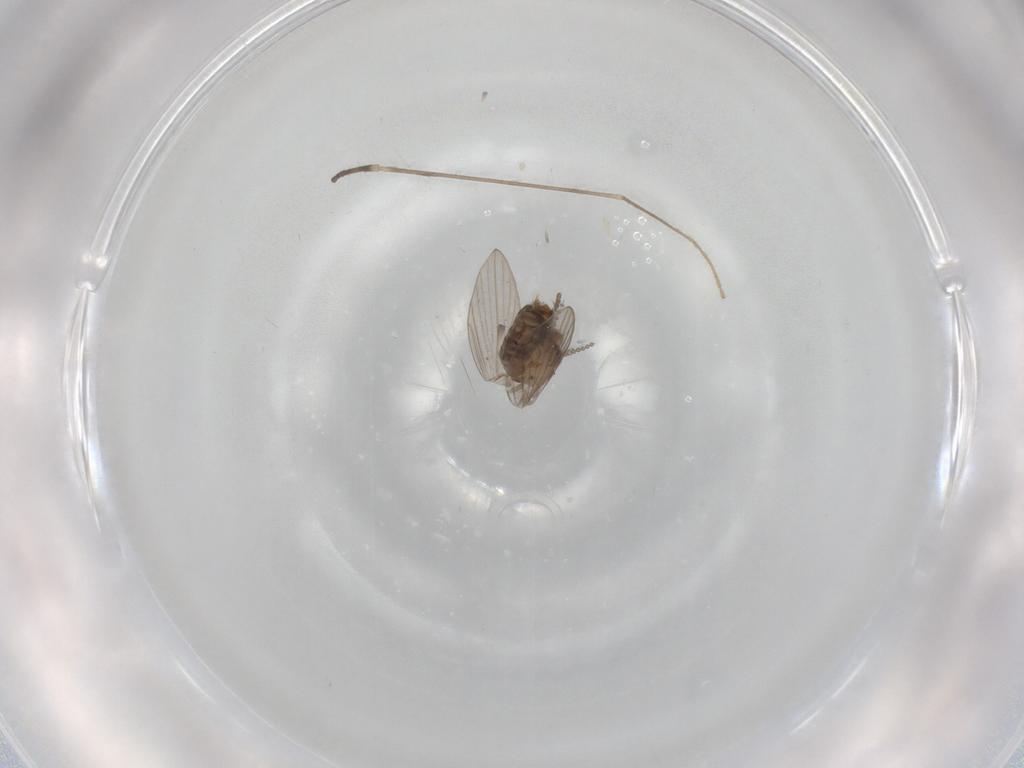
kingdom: Animalia
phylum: Arthropoda
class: Insecta
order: Diptera
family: Psychodidae
